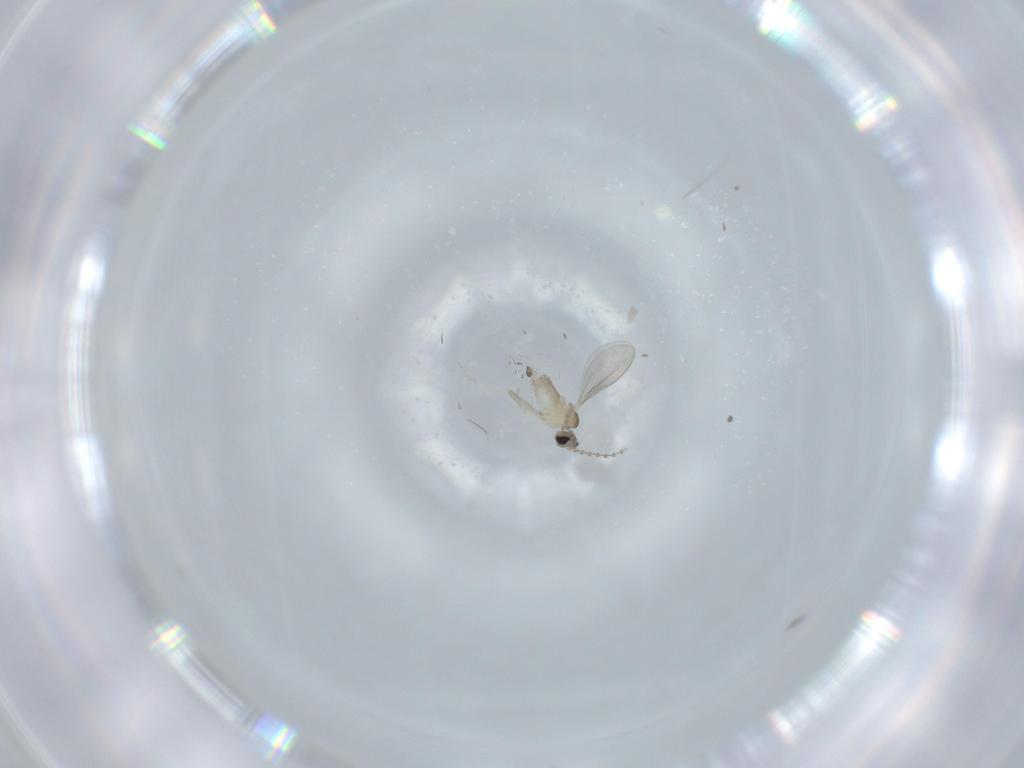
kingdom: Animalia
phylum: Arthropoda
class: Insecta
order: Diptera
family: Cecidomyiidae
